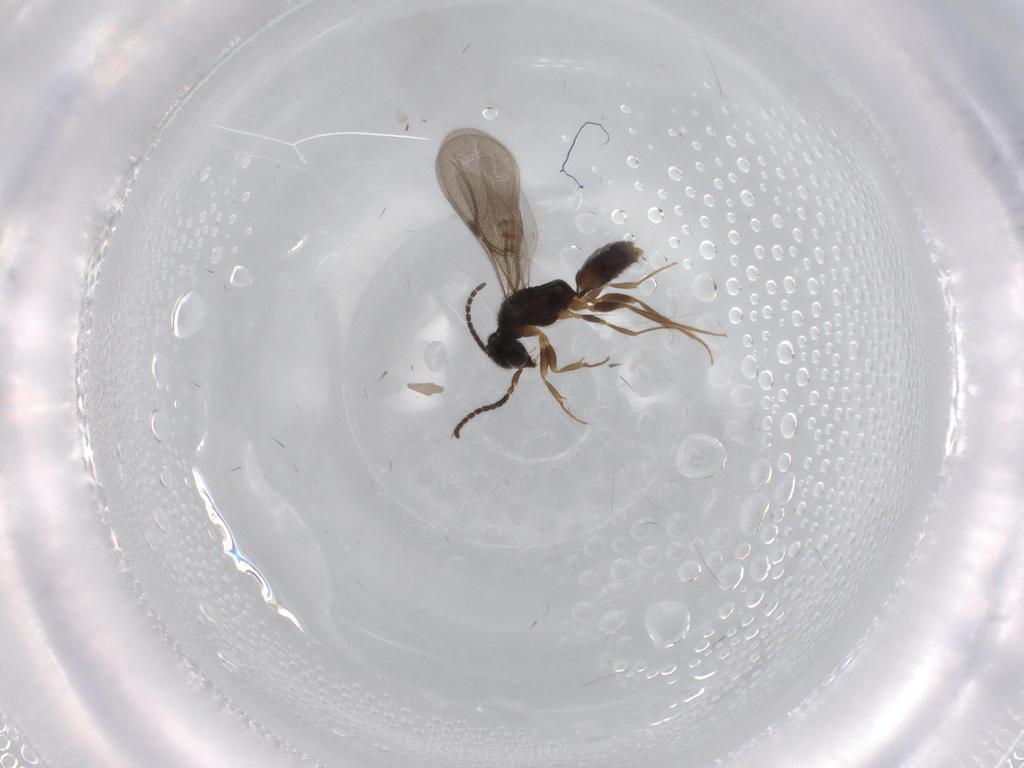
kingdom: Animalia
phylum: Arthropoda
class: Insecta
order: Hymenoptera
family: Bethylidae
